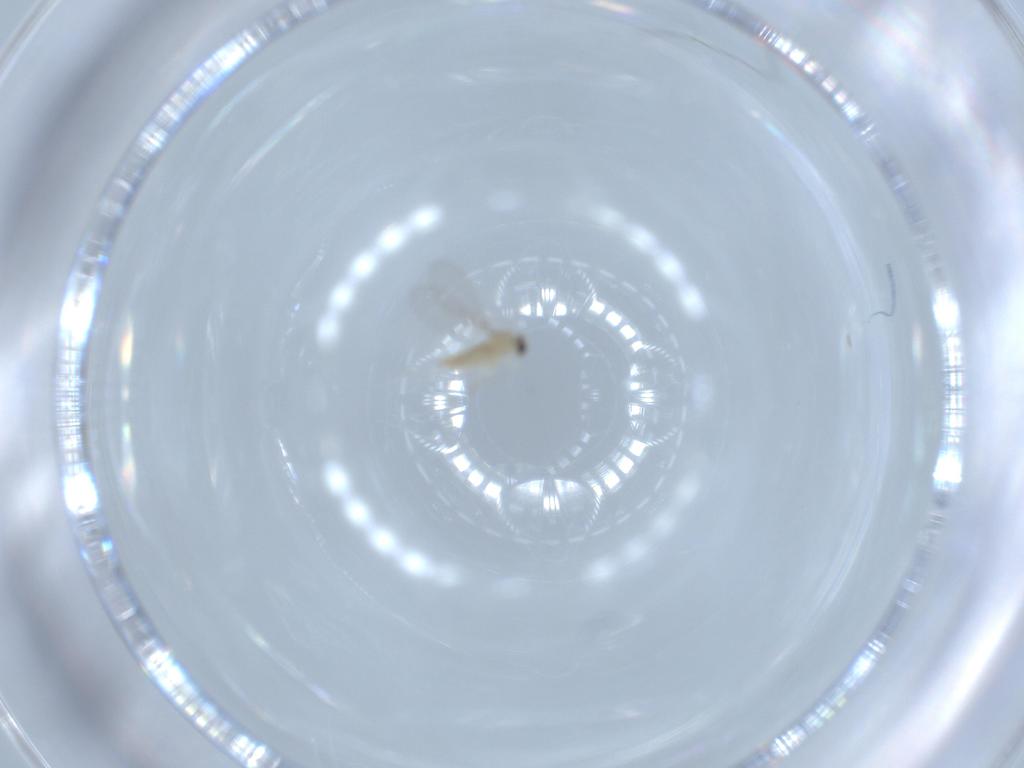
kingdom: Animalia
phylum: Arthropoda
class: Insecta
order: Diptera
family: Cecidomyiidae
